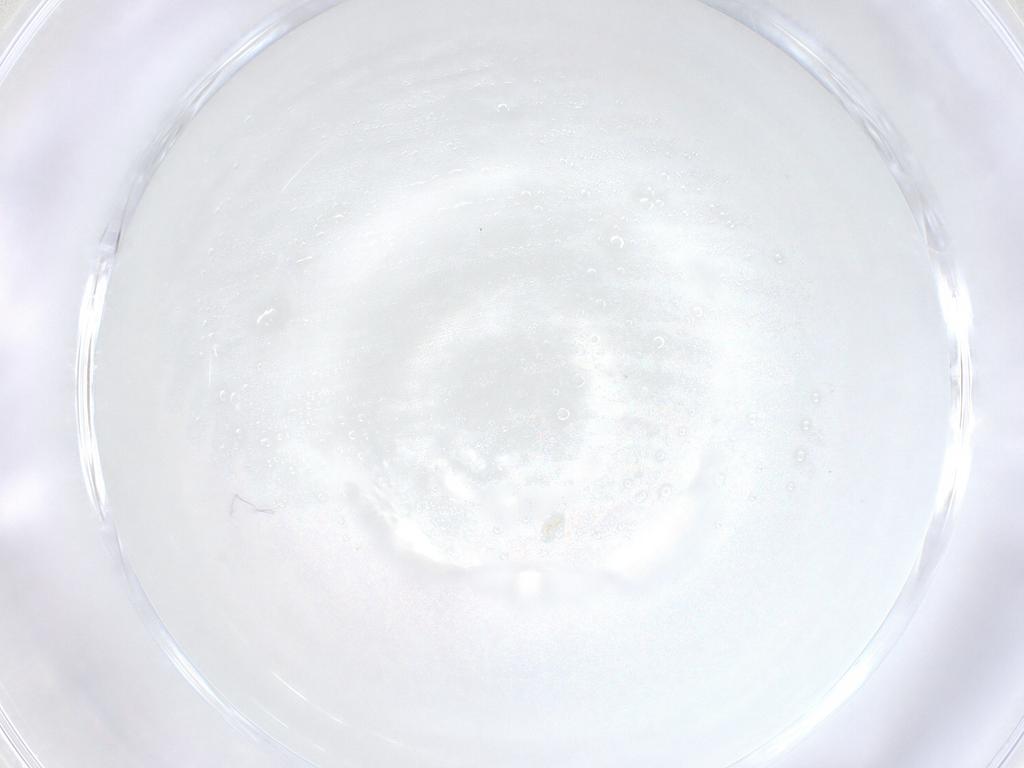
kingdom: Animalia
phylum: Arthropoda
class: Insecta
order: Diptera
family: Cecidomyiidae
